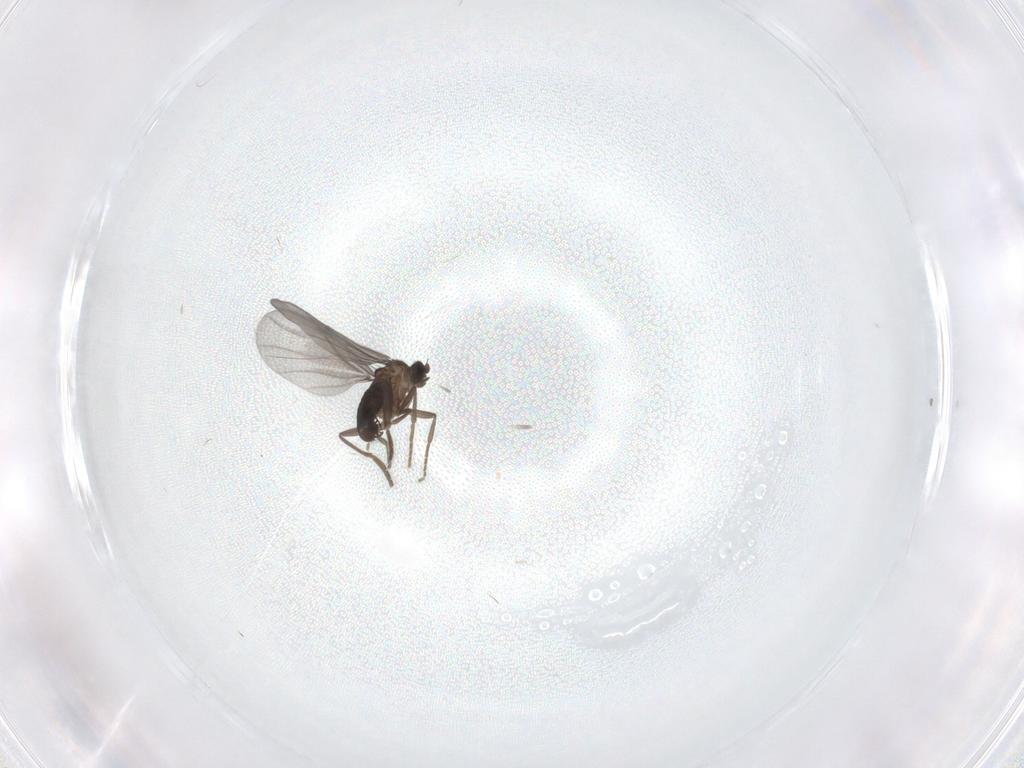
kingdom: Animalia
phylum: Arthropoda
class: Insecta
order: Diptera
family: Phoridae
